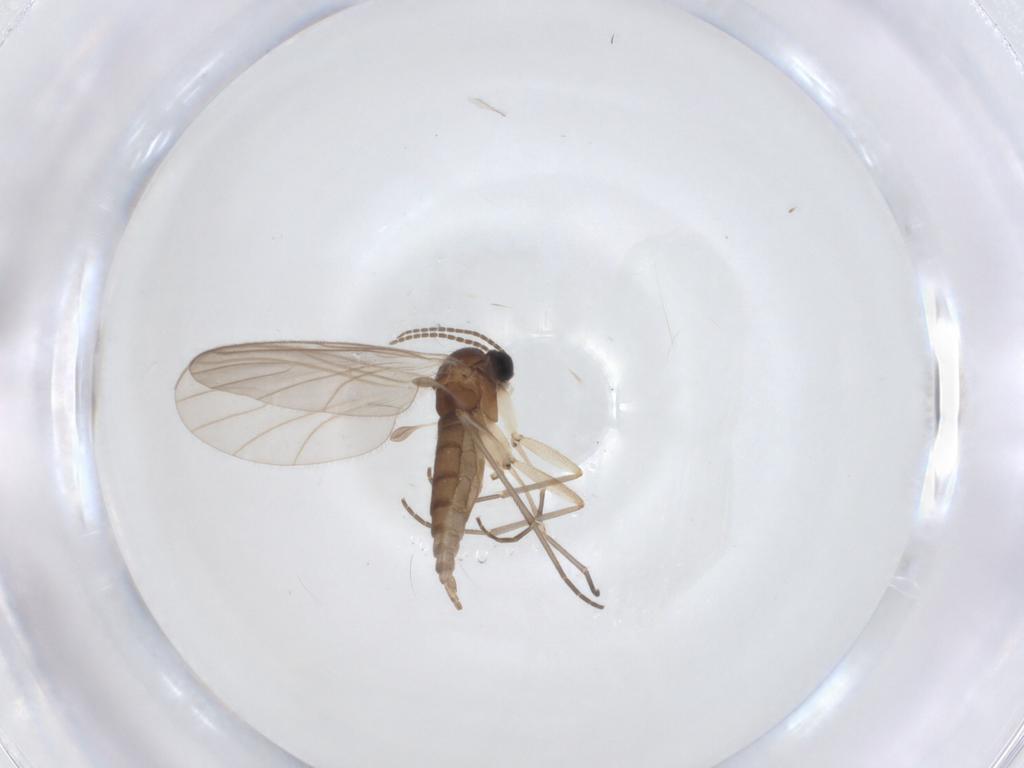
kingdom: Animalia
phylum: Arthropoda
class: Insecta
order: Diptera
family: Sciaridae
